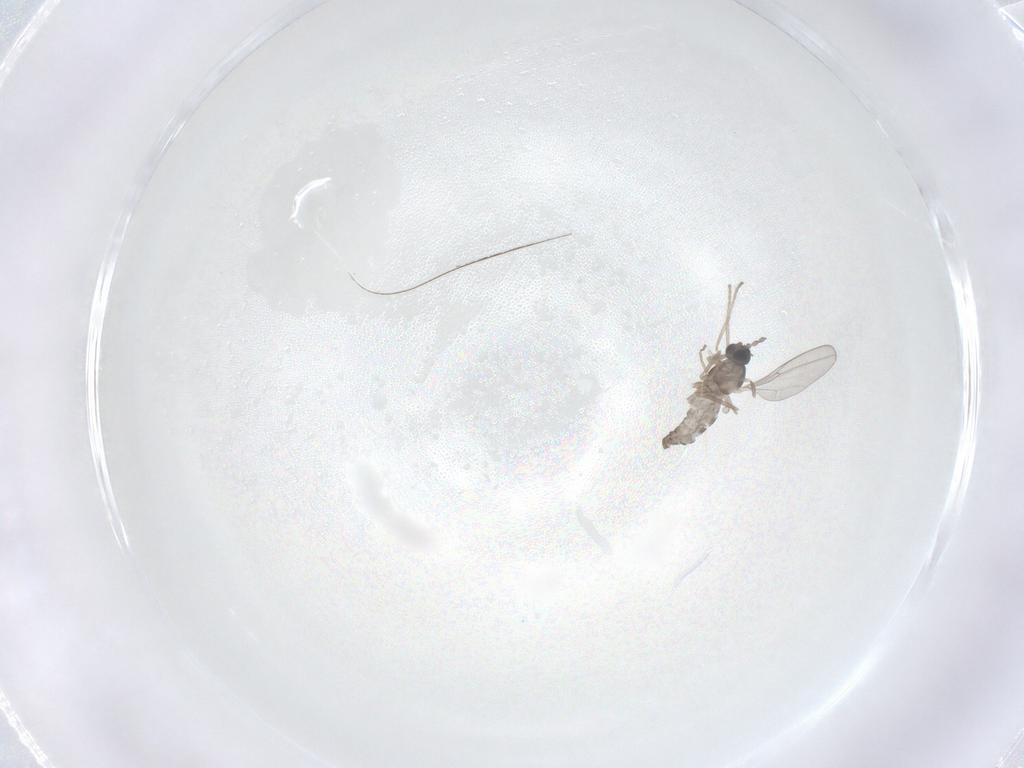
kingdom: Animalia
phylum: Arthropoda
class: Insecta
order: Diptera
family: Cecidomyiidae
